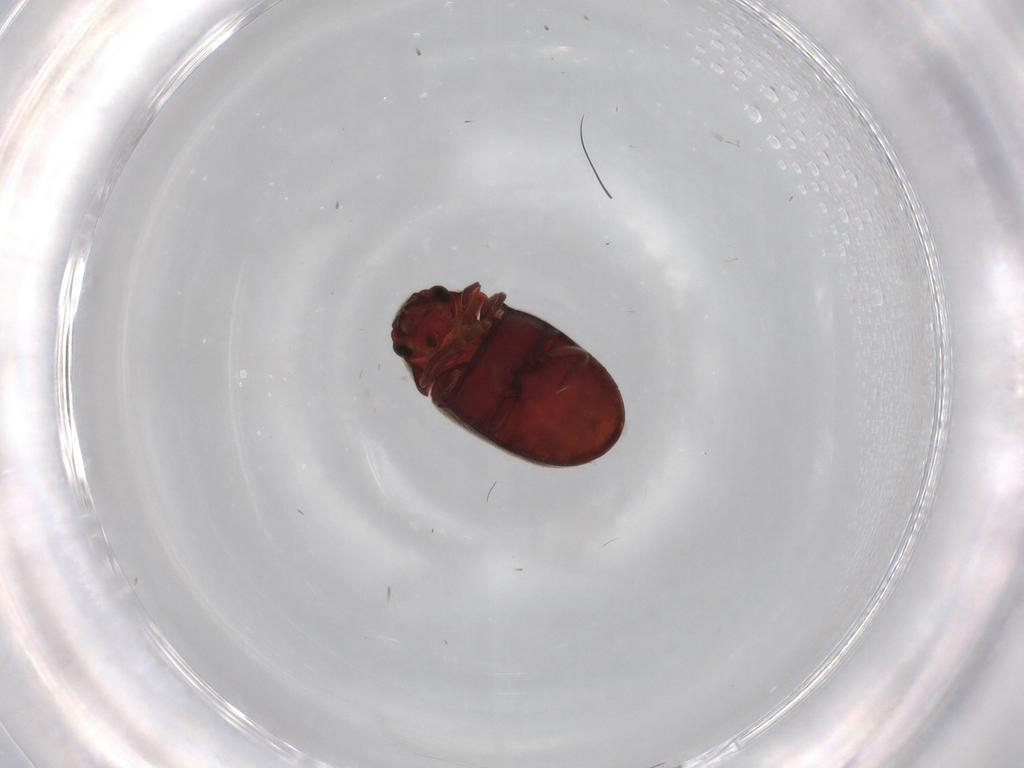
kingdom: Animalia
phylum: Arthropoda
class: Insecta
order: Coleoptera
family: Ptinidae
